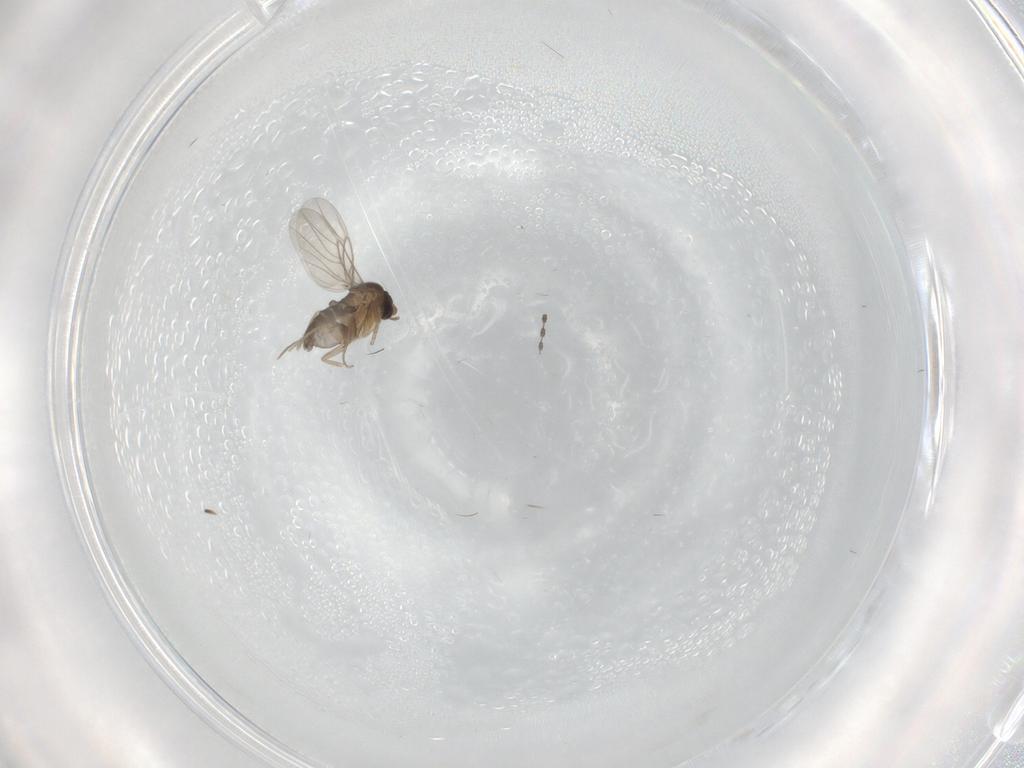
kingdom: Animalia
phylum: Arthropoda
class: Insecta
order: Diptera
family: Phoridae
